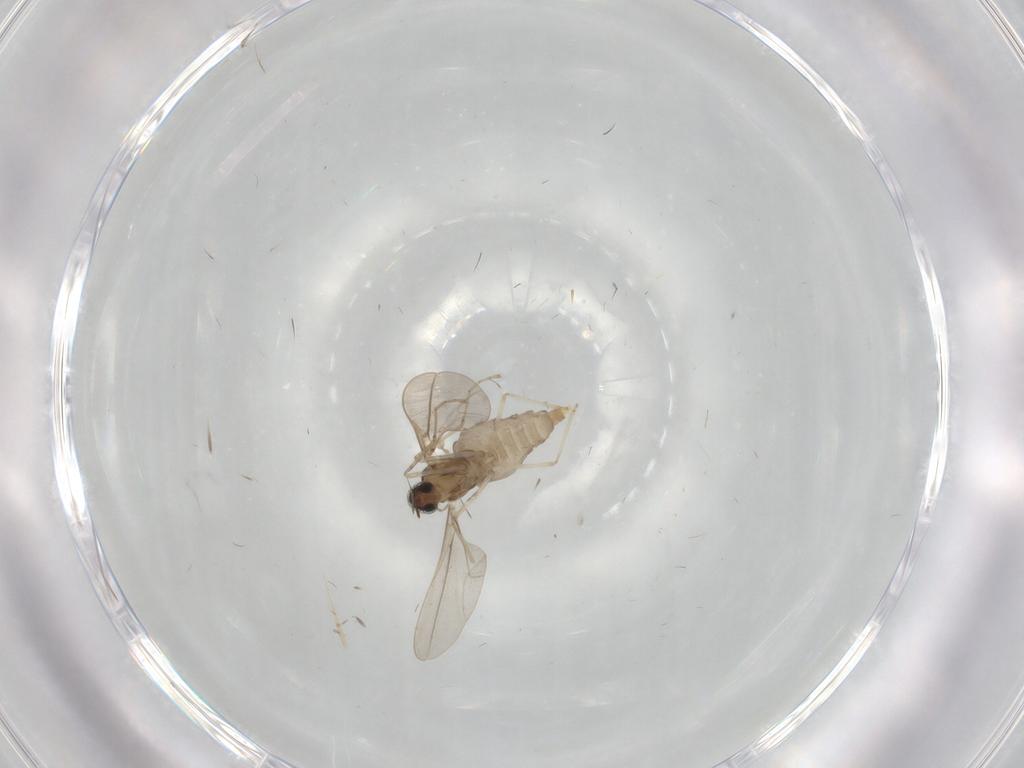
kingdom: Animalia
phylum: Arthropoda
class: Insecta
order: Diptera
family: Cecidomyiidae
